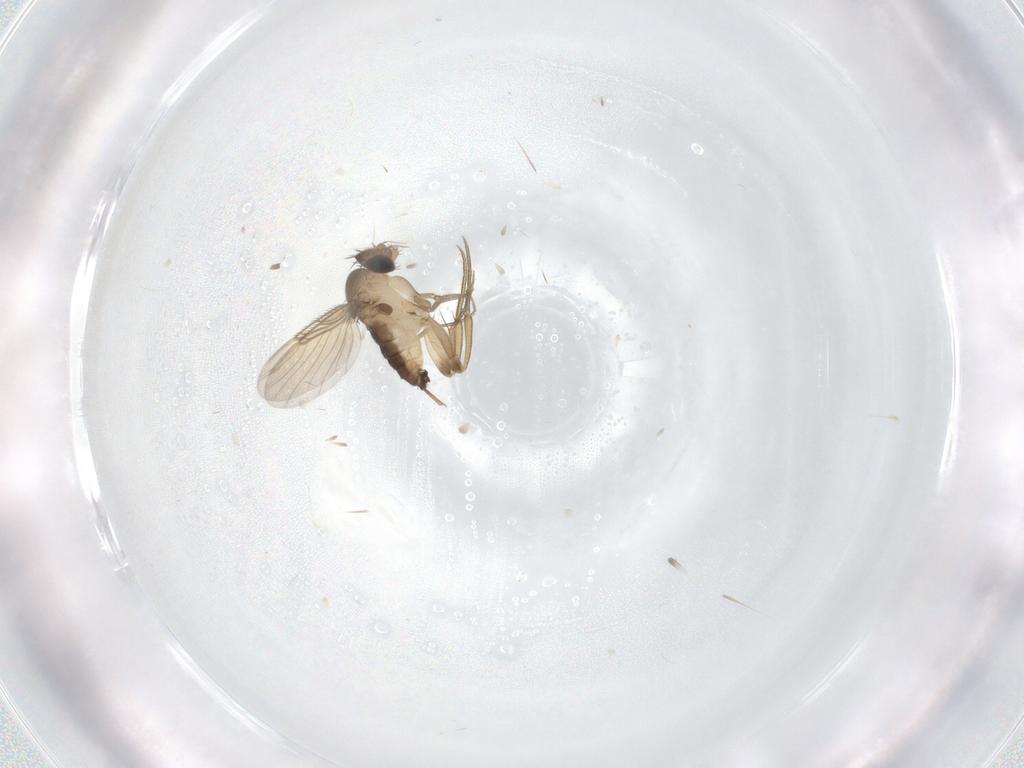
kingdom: Animalia
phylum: Arthropoda
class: Insecta
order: Diptera
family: Phoridae
